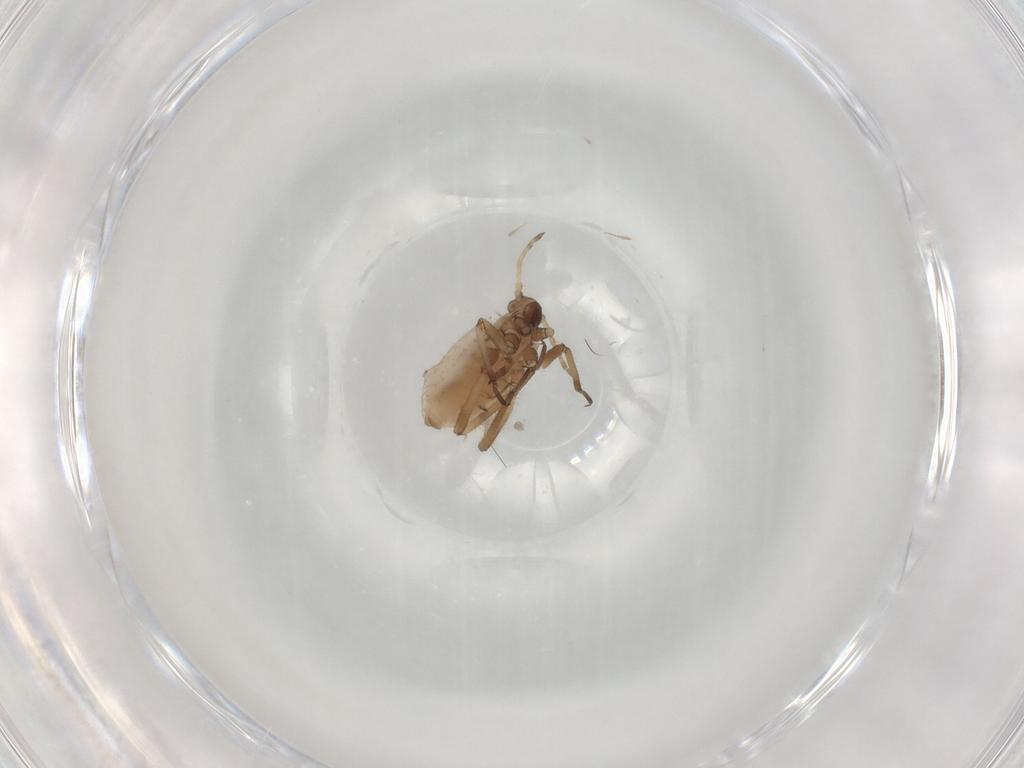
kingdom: Animalia
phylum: Arthropoda
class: Insecta
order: Hemiptera
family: Aphididae
